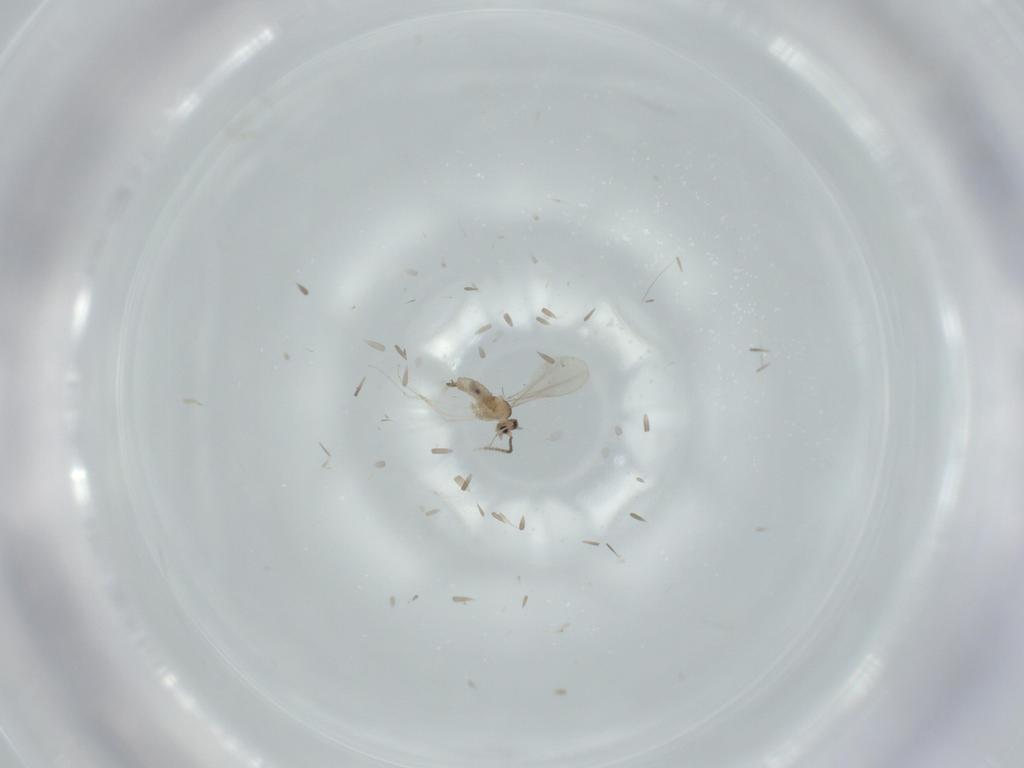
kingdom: Animalia
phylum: Arthropoda
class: Insecta
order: Diptera
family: Cecidomyiidae
